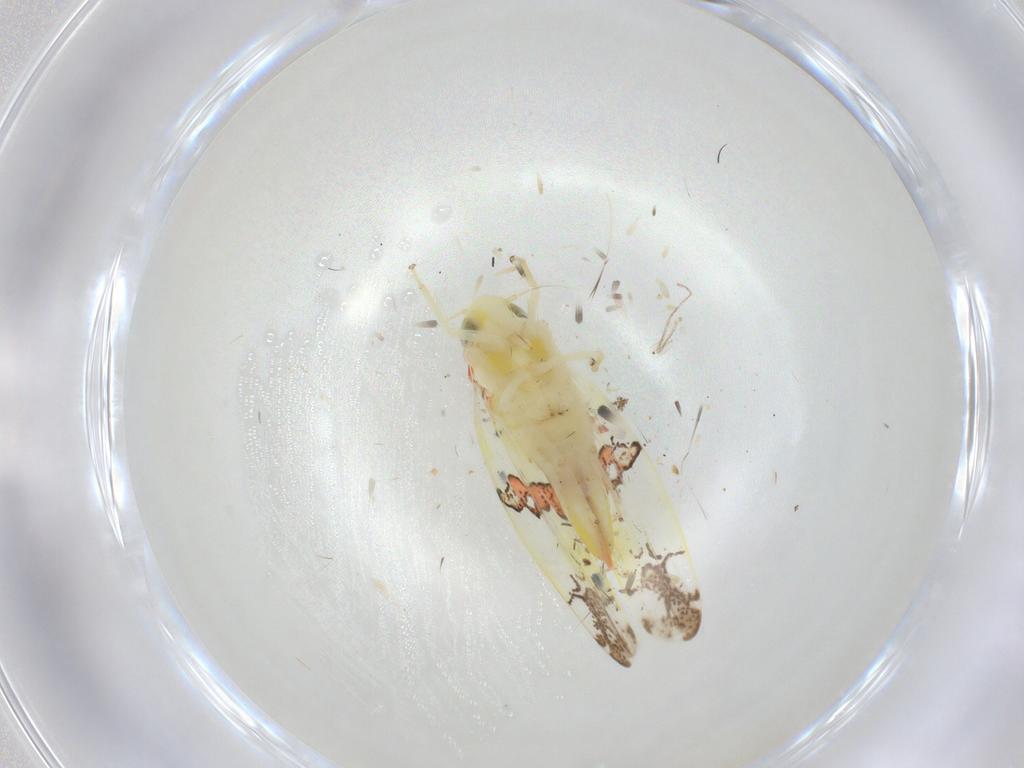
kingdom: Animalia
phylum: Arthropoda
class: Insecta
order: Hemiptera
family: Cicadellidae
